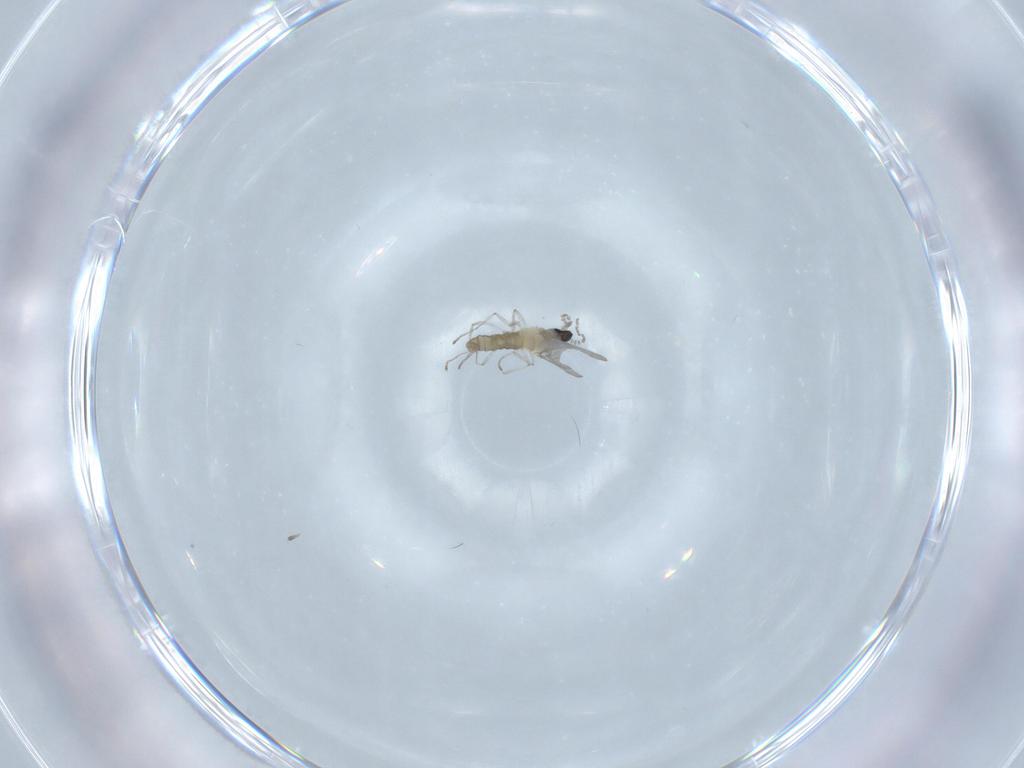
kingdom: Animalia
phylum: Arthropoda
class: Insecta
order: Diptera
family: Cecidomyiidae
